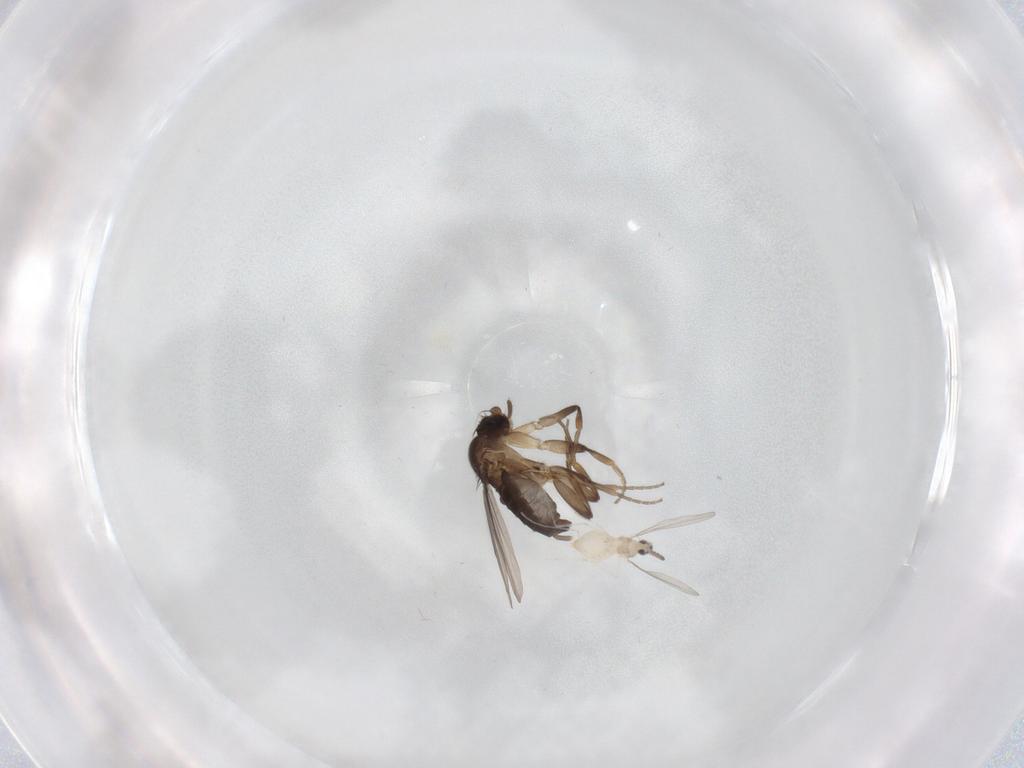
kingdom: Animalia
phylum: Arthropoda
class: Insecta
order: Diptera
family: Cecidomyiidae
